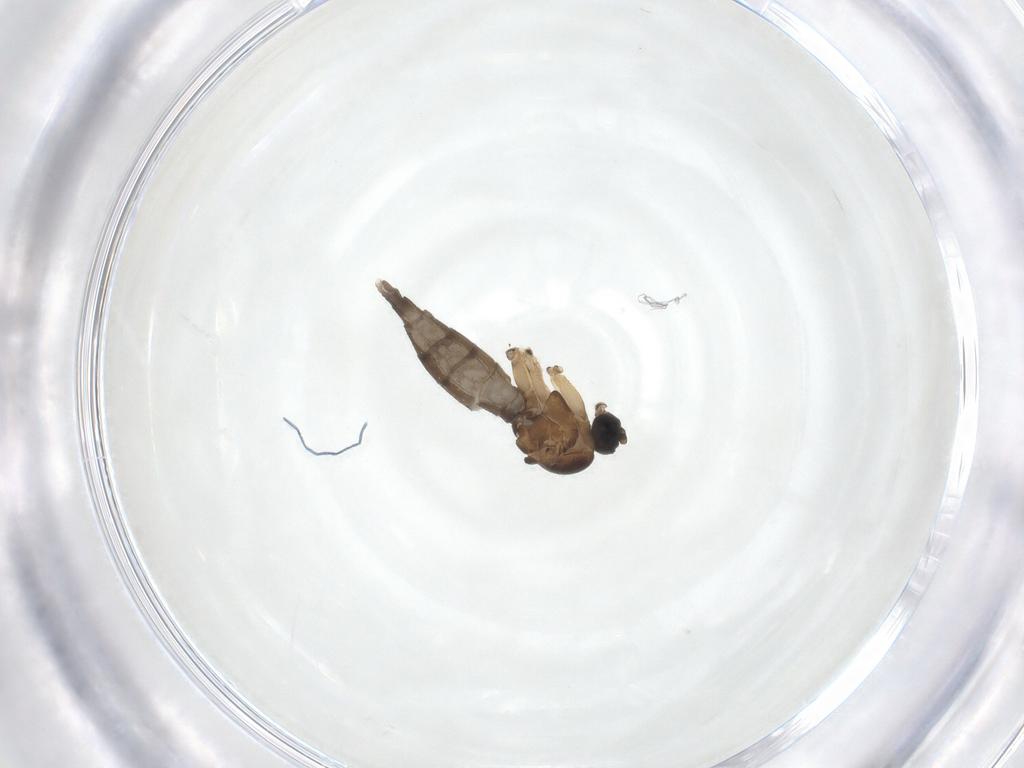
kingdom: Animalia
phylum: Arthropoda
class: Insecta
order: Diptera
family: Sciaridae
